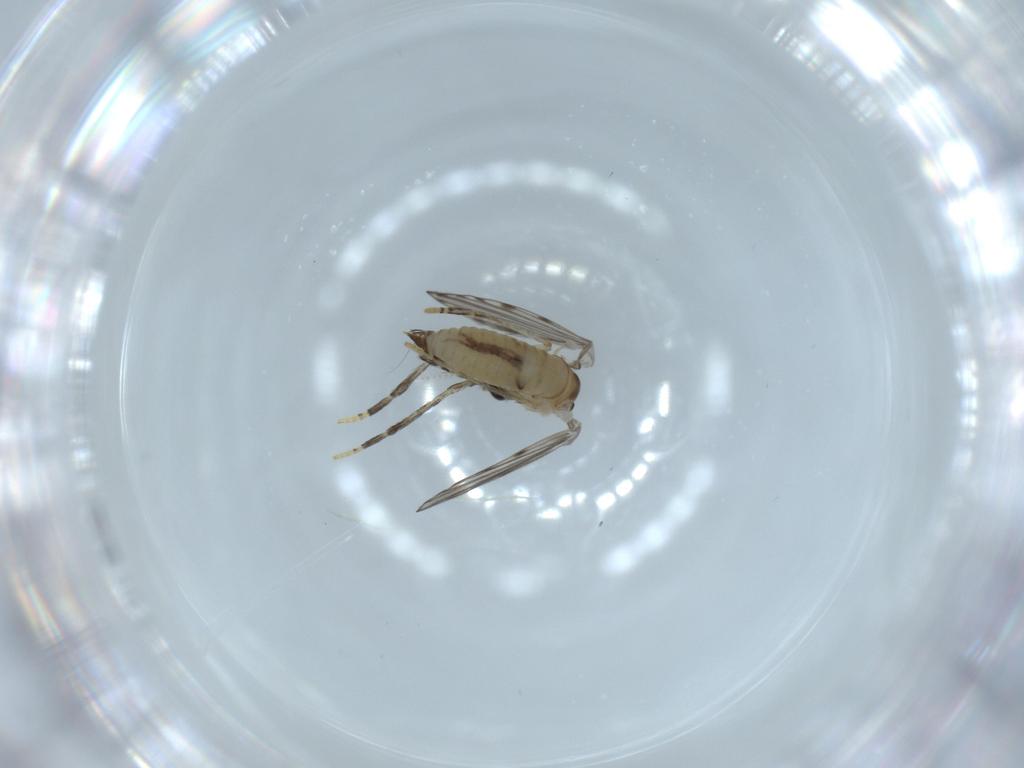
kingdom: Animalia
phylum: Arthropoda
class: Insecta
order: Diptera
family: Psychodidae
